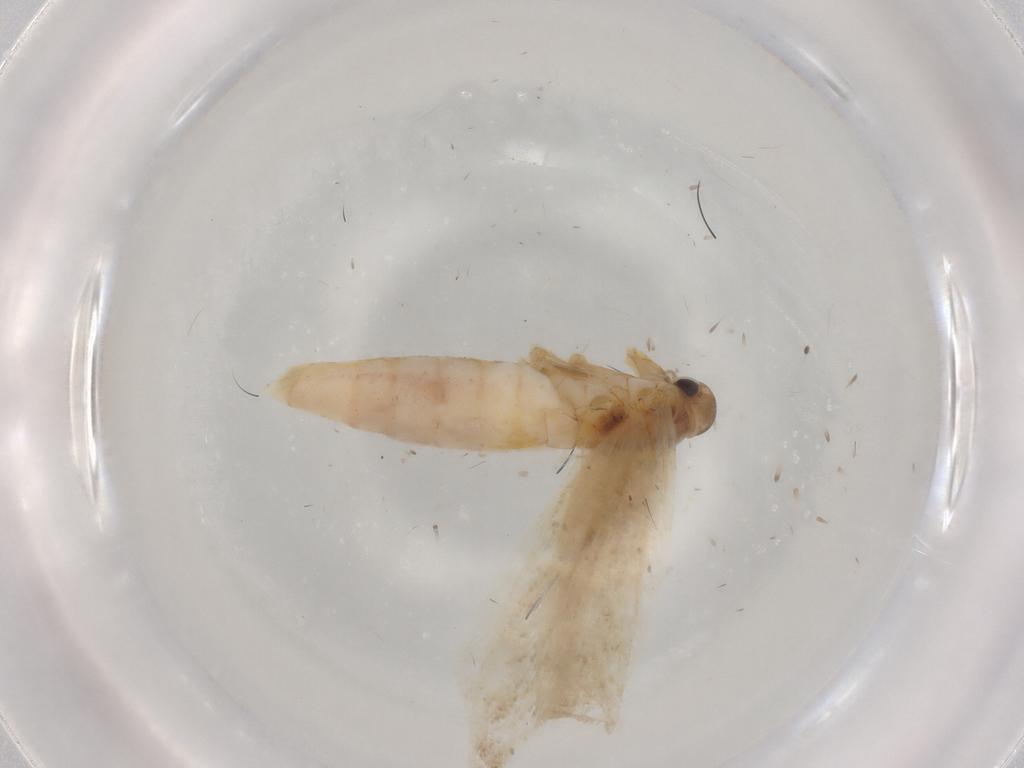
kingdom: Animalia
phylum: Arthropoda
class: Insecta
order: Lepidoptera
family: Gelechiidae
